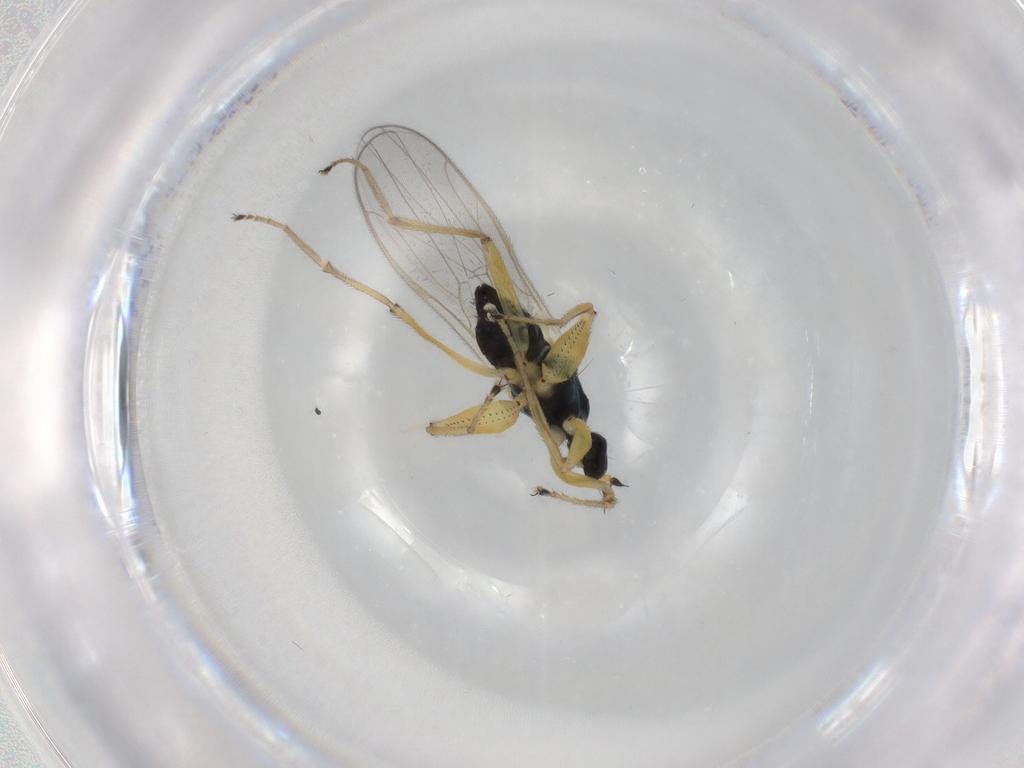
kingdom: Animalia
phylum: Arthropoda
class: Insecta
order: Diptera
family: Hybotidae
